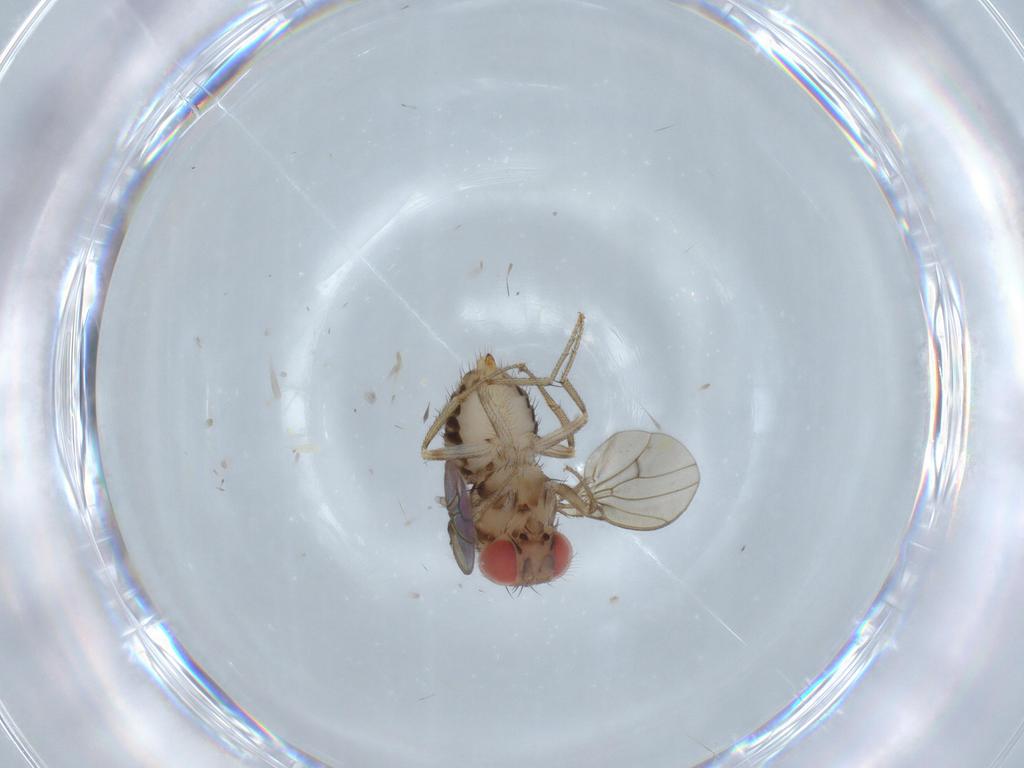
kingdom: Animalia
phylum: Arthropoda
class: Insecta
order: Diptera
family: Drosophilidae
